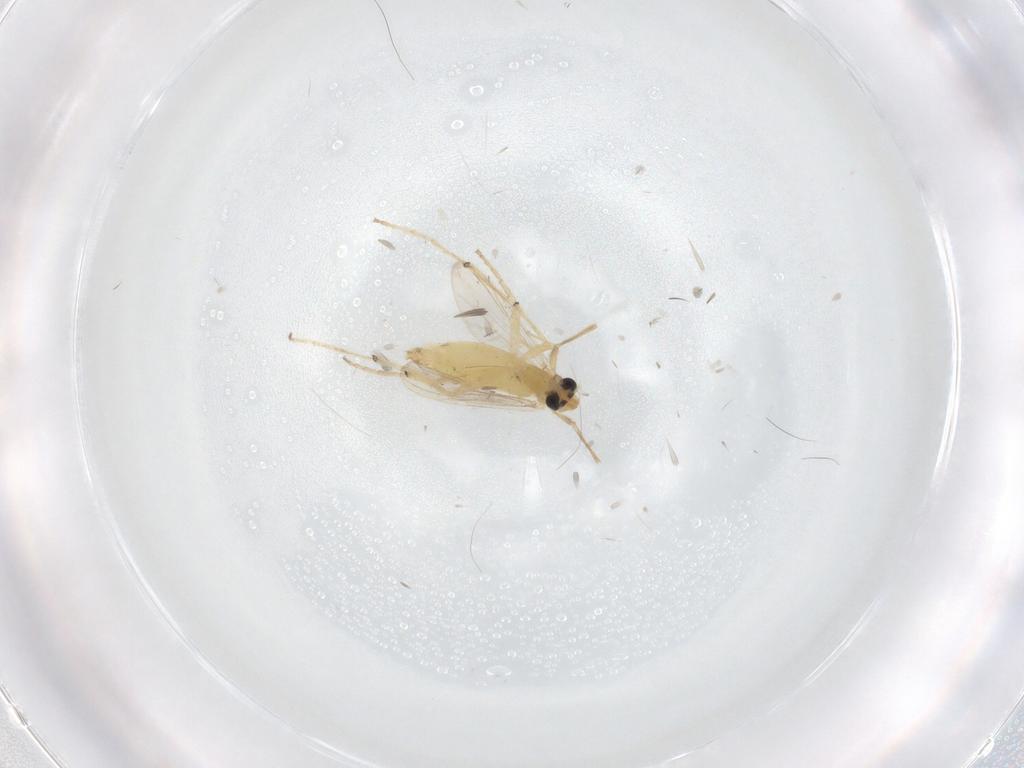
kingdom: Animalia
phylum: Arthropoda
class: Insecta
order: Diptera
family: Chironomidae
